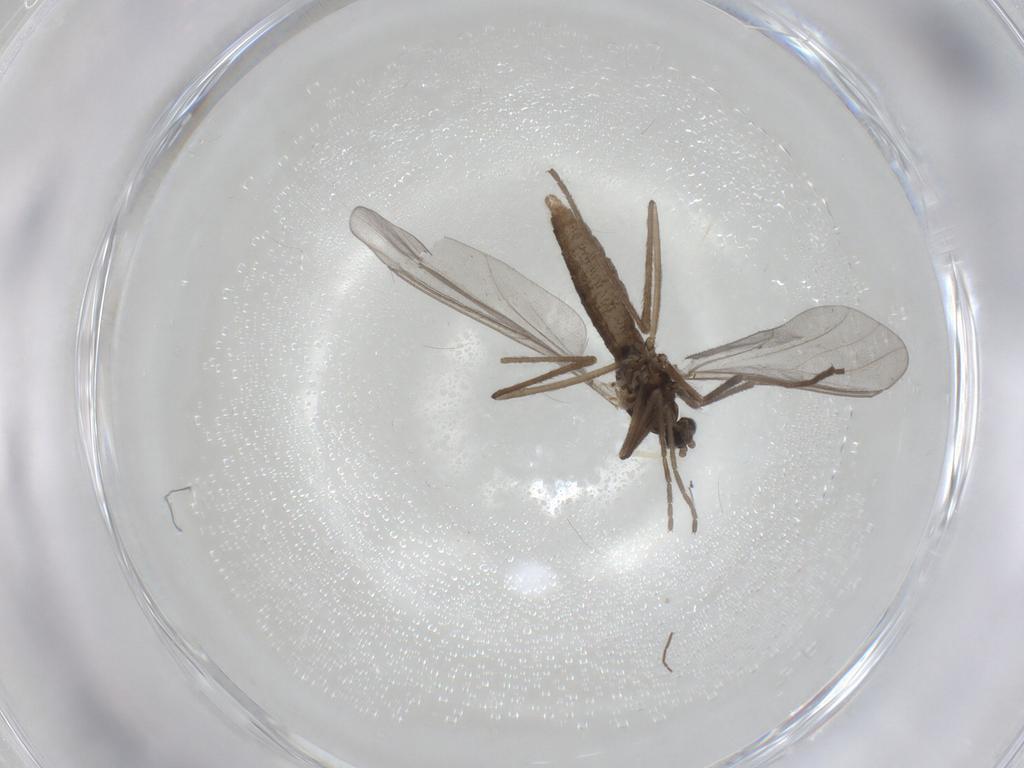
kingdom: Animalia
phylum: Arthropoda
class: Insecta
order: Diptera
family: Cecidomyiidae
